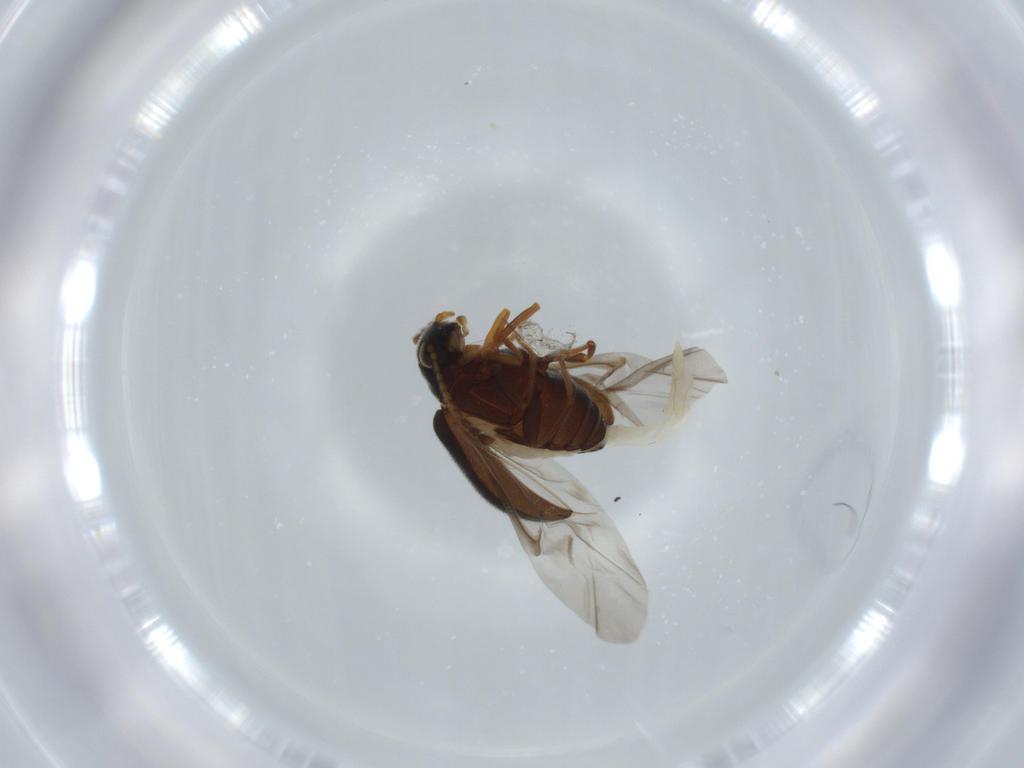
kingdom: Animalia
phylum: Arthropoda
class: Insecta
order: Coleoptera
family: Aderidae
